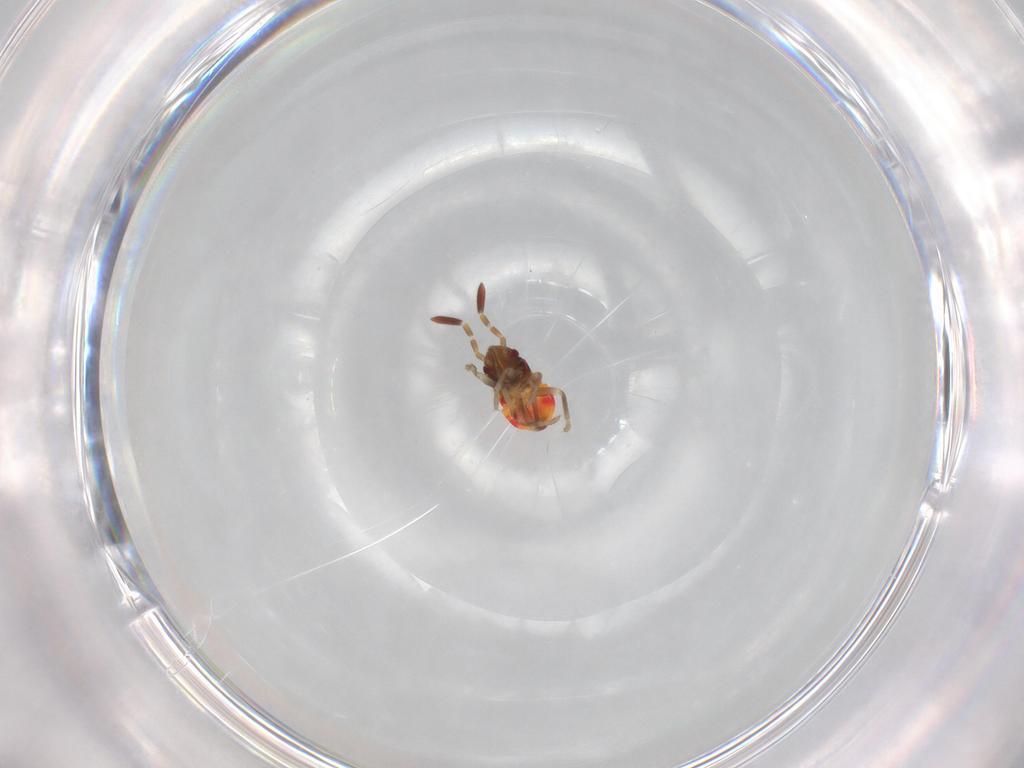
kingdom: Animalia
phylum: Arthropoda
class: Insecta
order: Hemiptera
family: Rhyparochromidae
